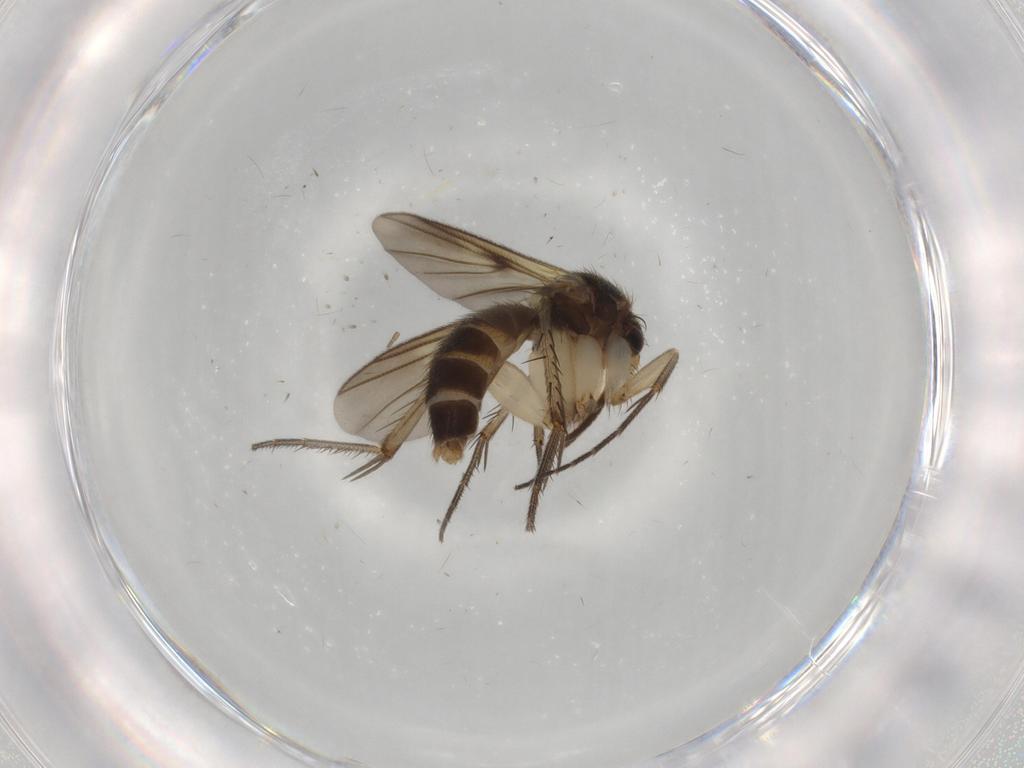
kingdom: Animalia
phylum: Arthropoda
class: Insecta
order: Diptera
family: Mycetophilidae
